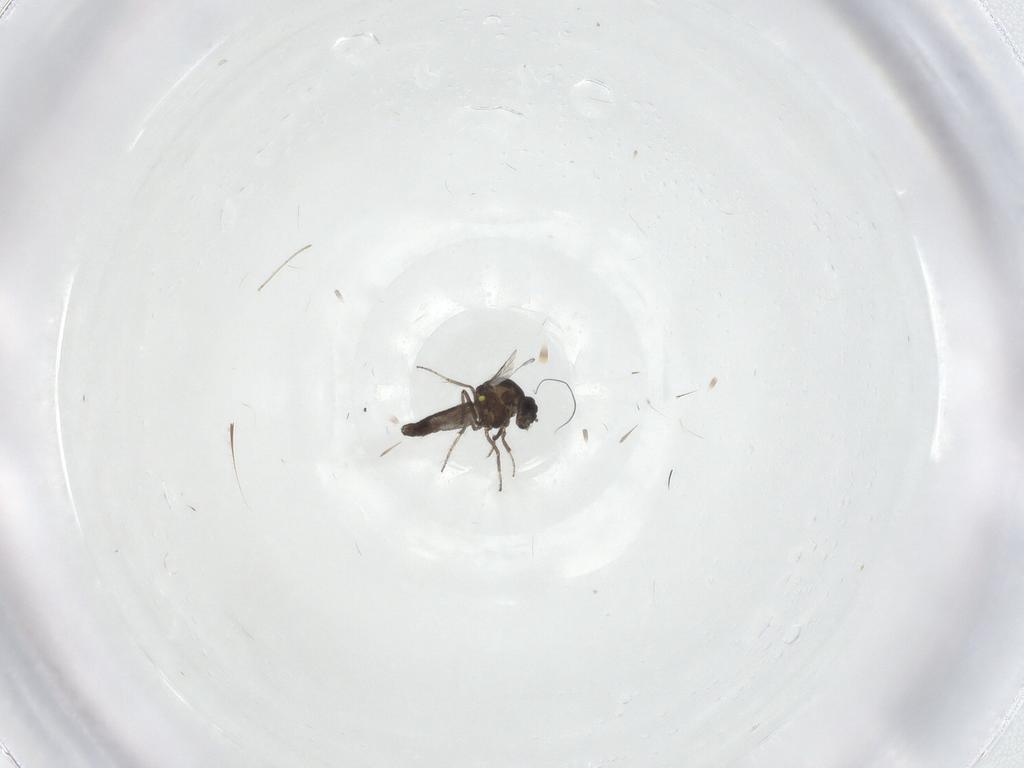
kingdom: Animalia
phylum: Arthropoda
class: Insecta
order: Diptera
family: Ceratopogonidae
